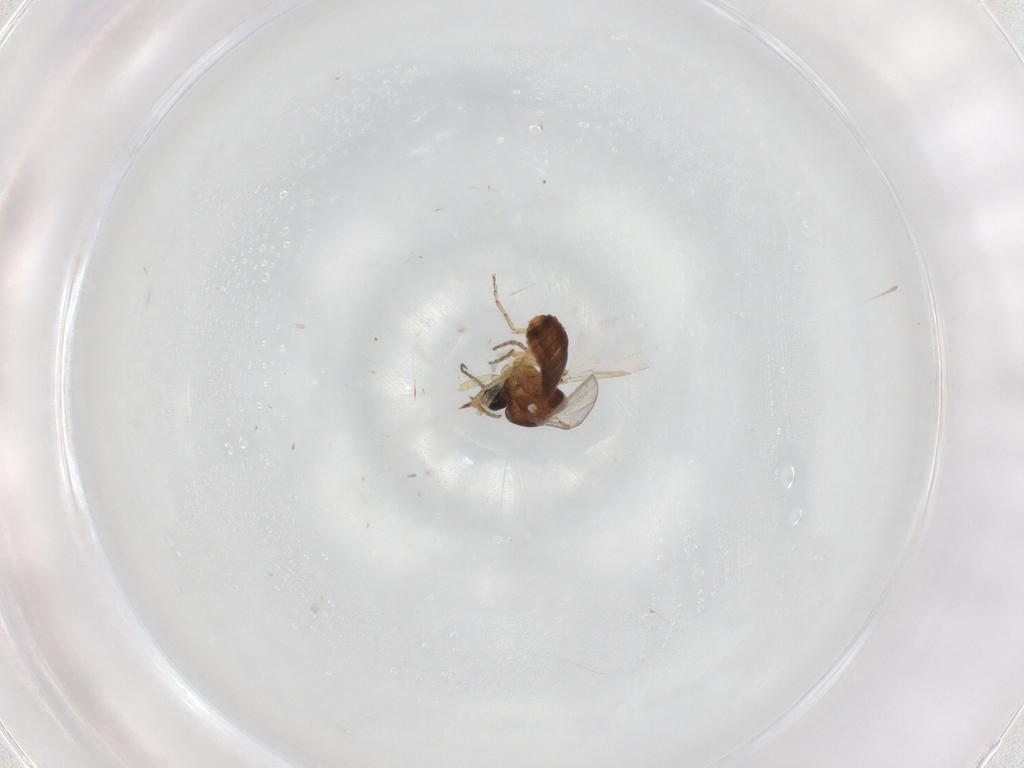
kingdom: Animalia
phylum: Arthropoda
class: Insecta
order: Diptera
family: Ceratopogonidae
